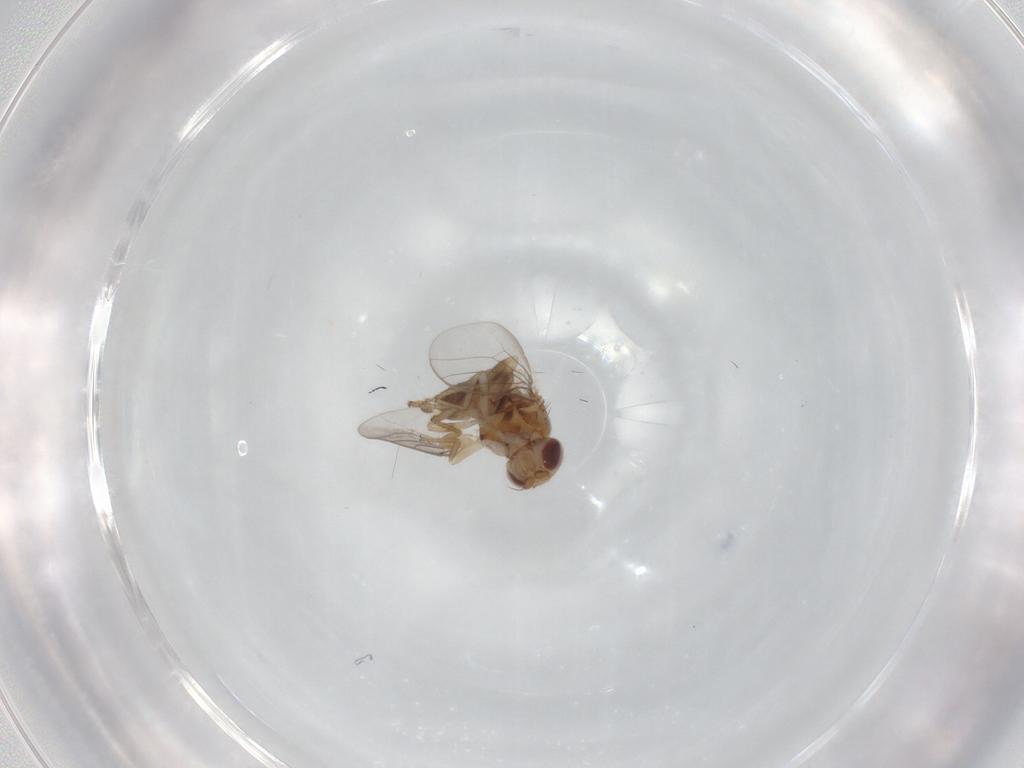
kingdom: Animalia
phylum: Arthropoda
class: Insecta
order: Diptera
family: Chloropidae
